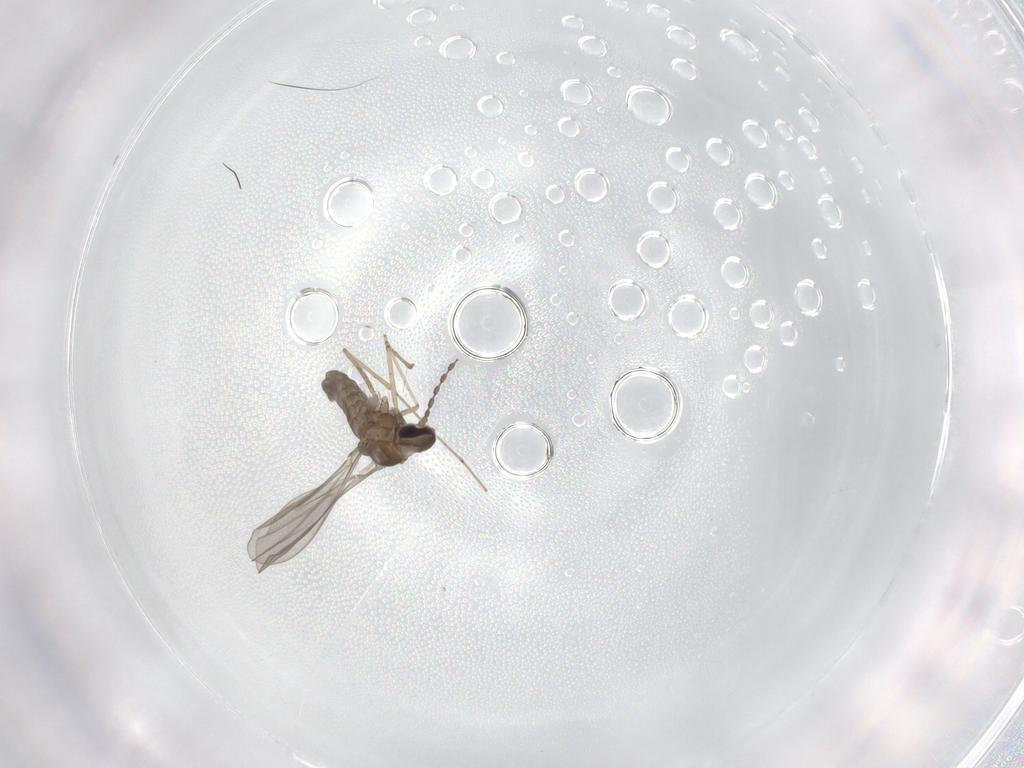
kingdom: Animalia
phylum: Arthropoda
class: Insecta
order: Diptera
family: Cecidomyiidae
